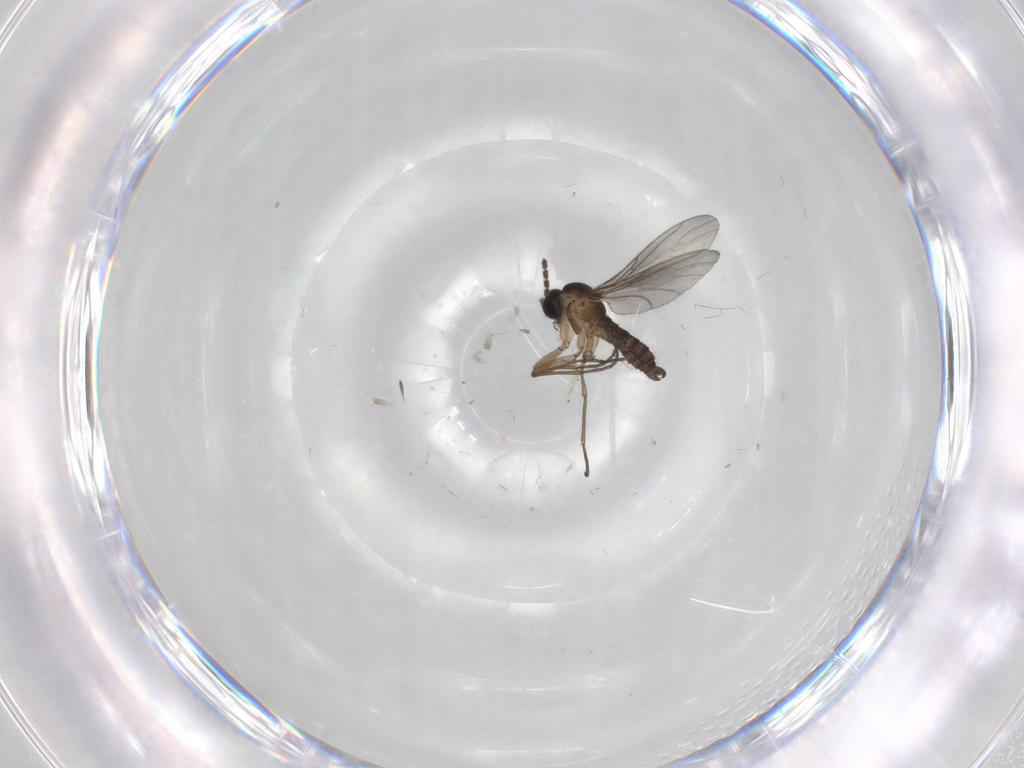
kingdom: Animalia
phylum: Arthropoda
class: Insecta
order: Diptera
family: Sciaridae
